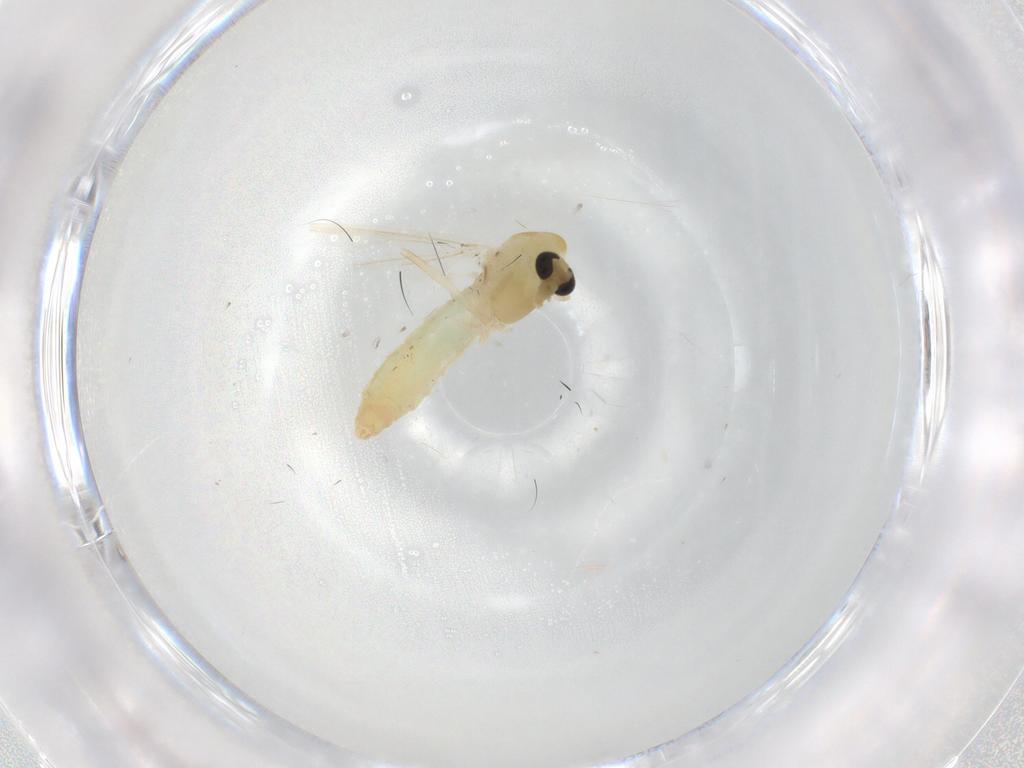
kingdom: Animalia
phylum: Arthropoda
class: Insecta
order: Diptera
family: Chironomidae
